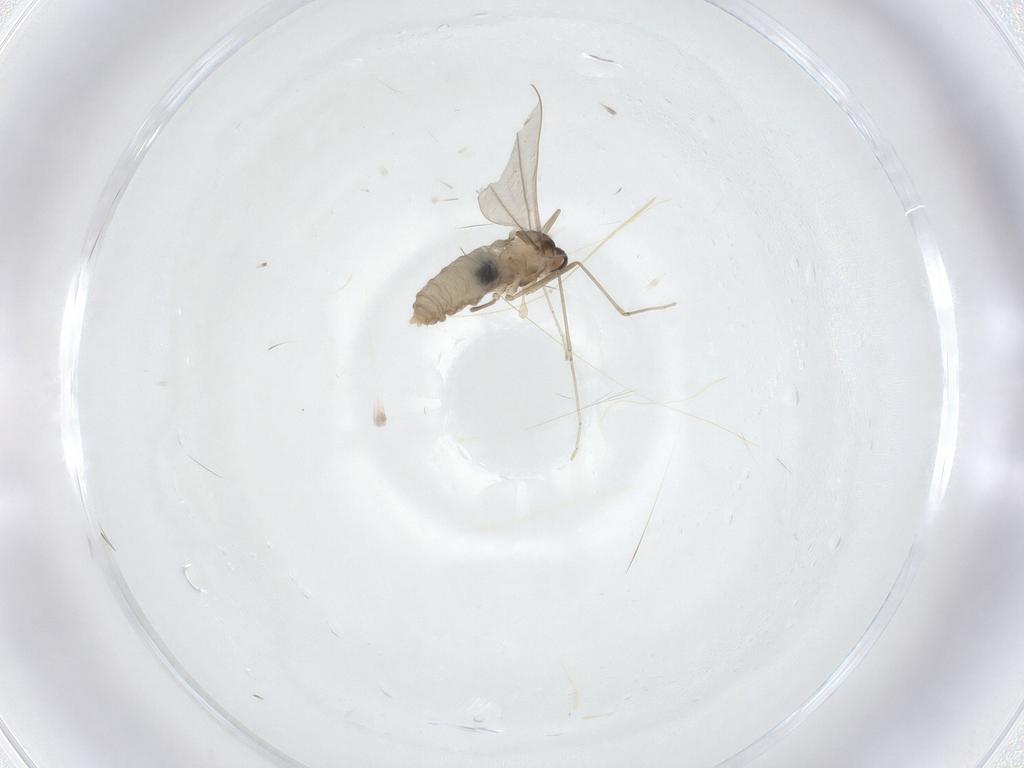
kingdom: Animalia
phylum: Arthropoda
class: Insecta
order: Diptera
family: Cecidomyiidae
